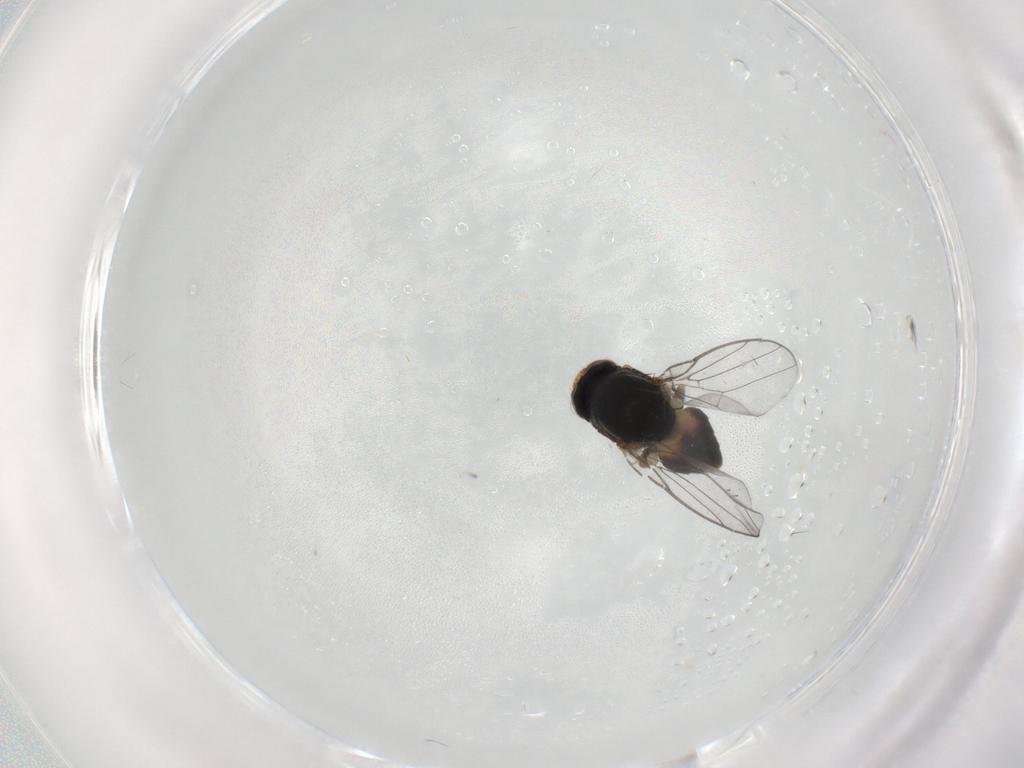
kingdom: Animalia
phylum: Arthropoda
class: Insecta
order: Diptera
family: Chloropidae
